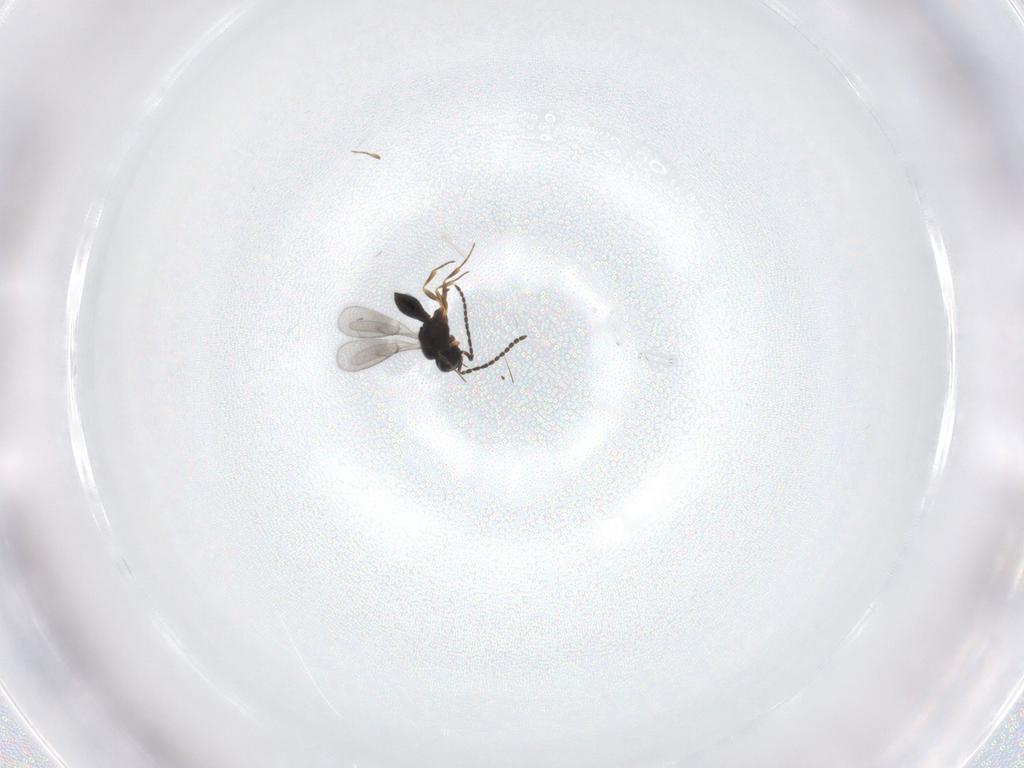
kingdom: Animalia
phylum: Arthropoda
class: Insecta
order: Hymenoptera
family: Scelionidae
